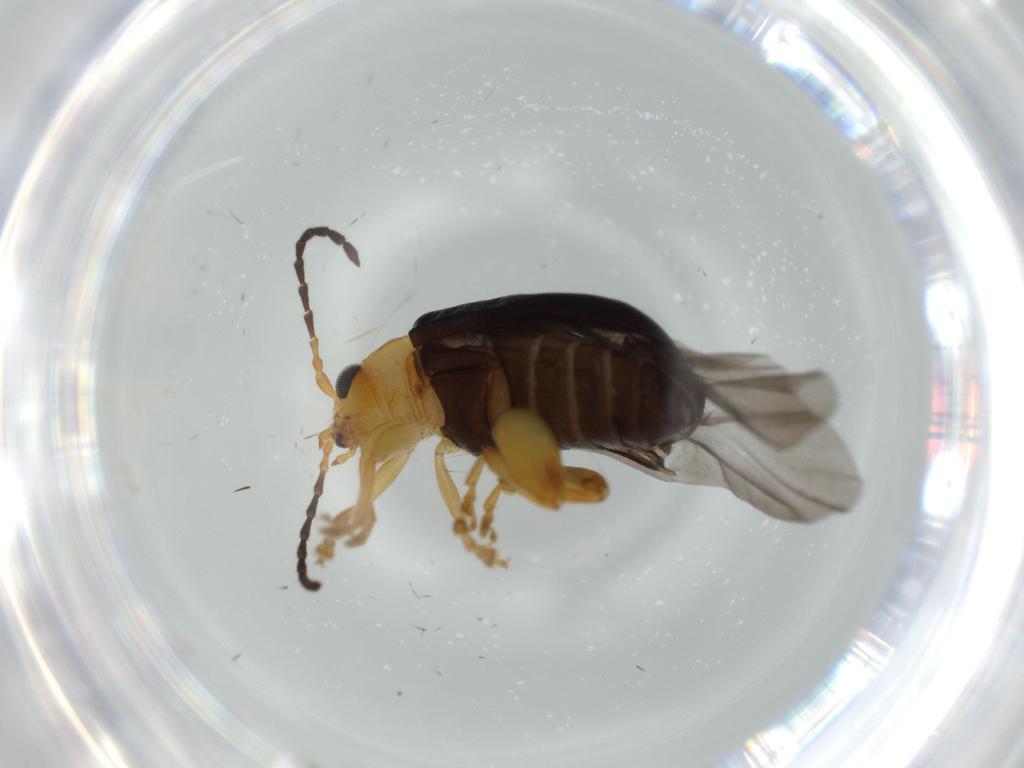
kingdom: Animalia
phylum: Arthropoda
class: Insecta
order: Coleoptera
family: Chrysomelidae
